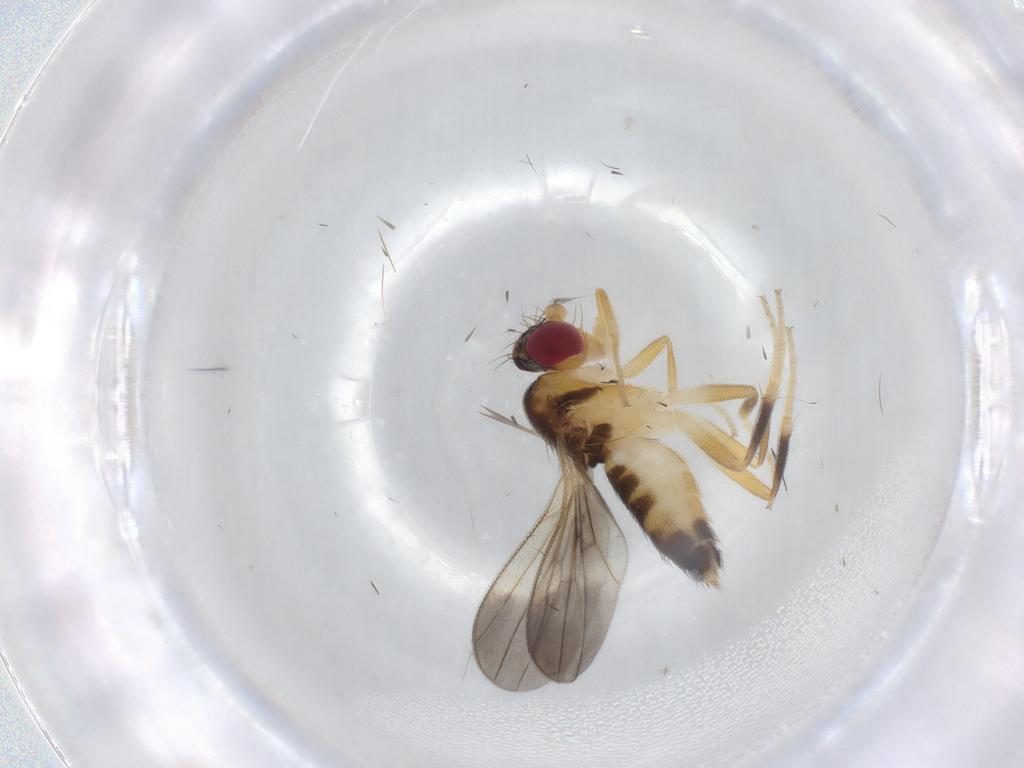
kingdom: Animalia
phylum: Arthropoda
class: Insecta
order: Diptera
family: Clusiidae
